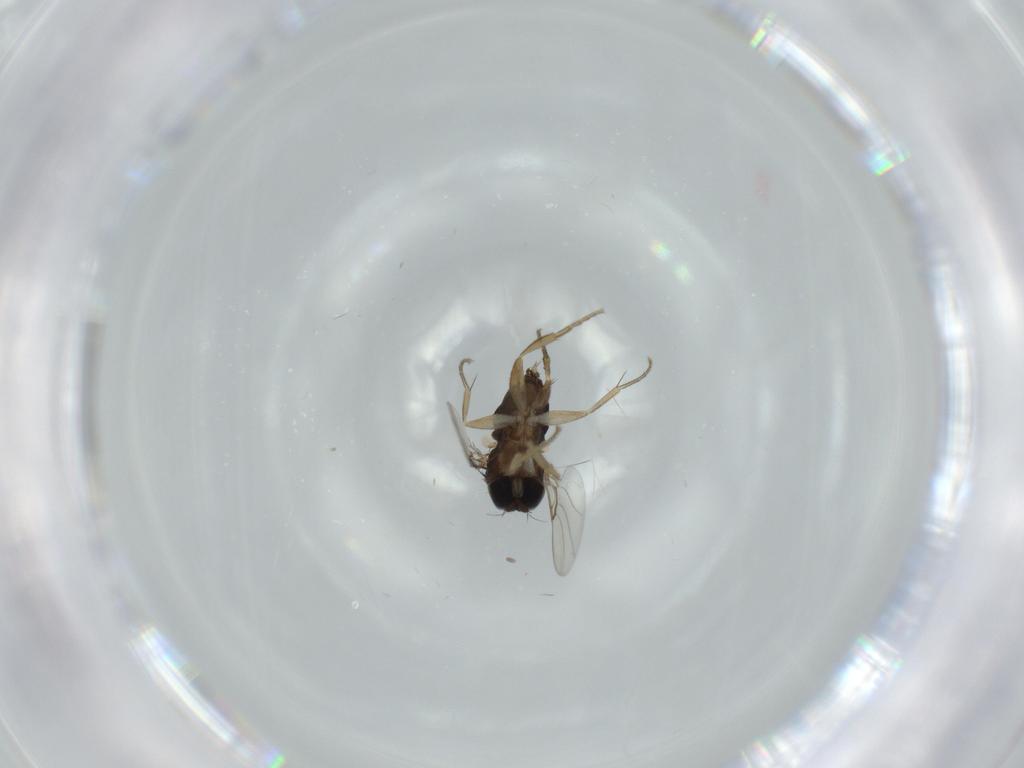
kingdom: Animalia
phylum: Arthropoda
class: Insecta
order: Diptera
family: Phoridae
